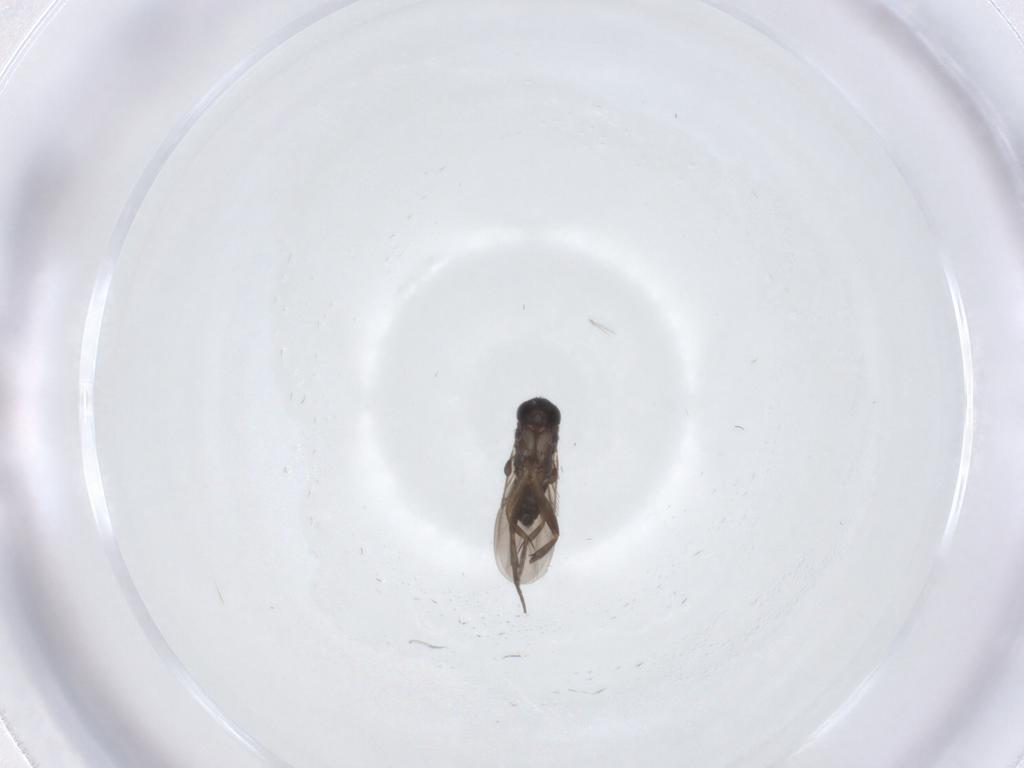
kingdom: Animalia
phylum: Arthropoda
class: Insecta
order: Diptera
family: Phoridae
